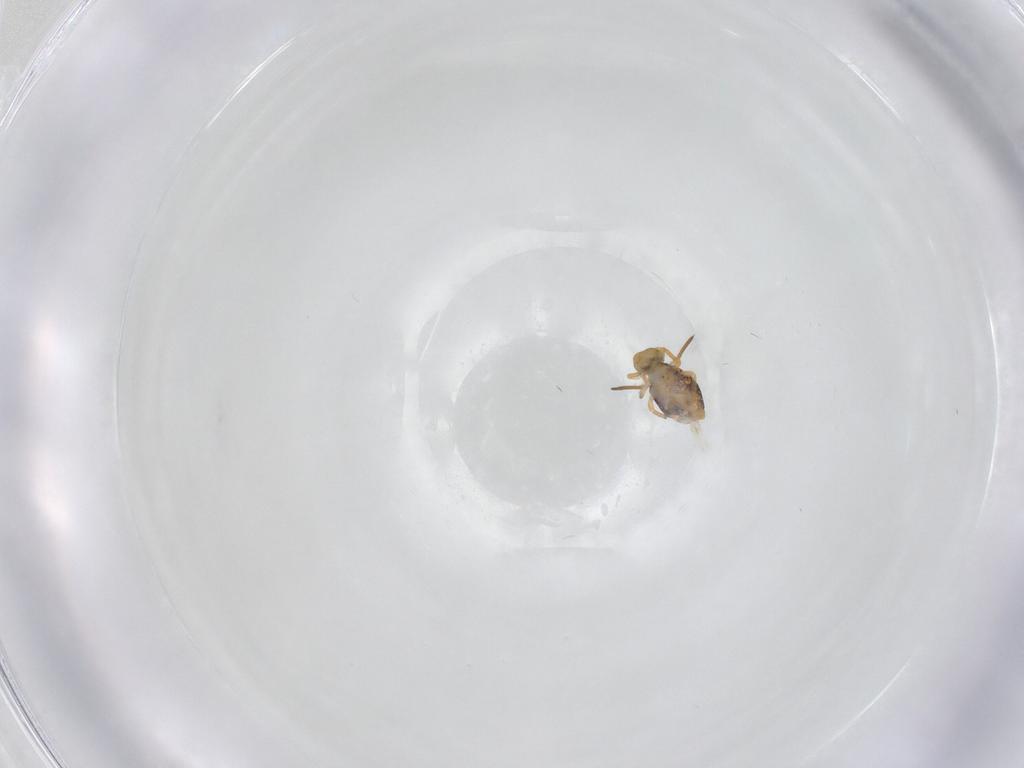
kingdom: Animalia
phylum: Arthropoda
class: Collembola
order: Symphypleona
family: Katiannidae
